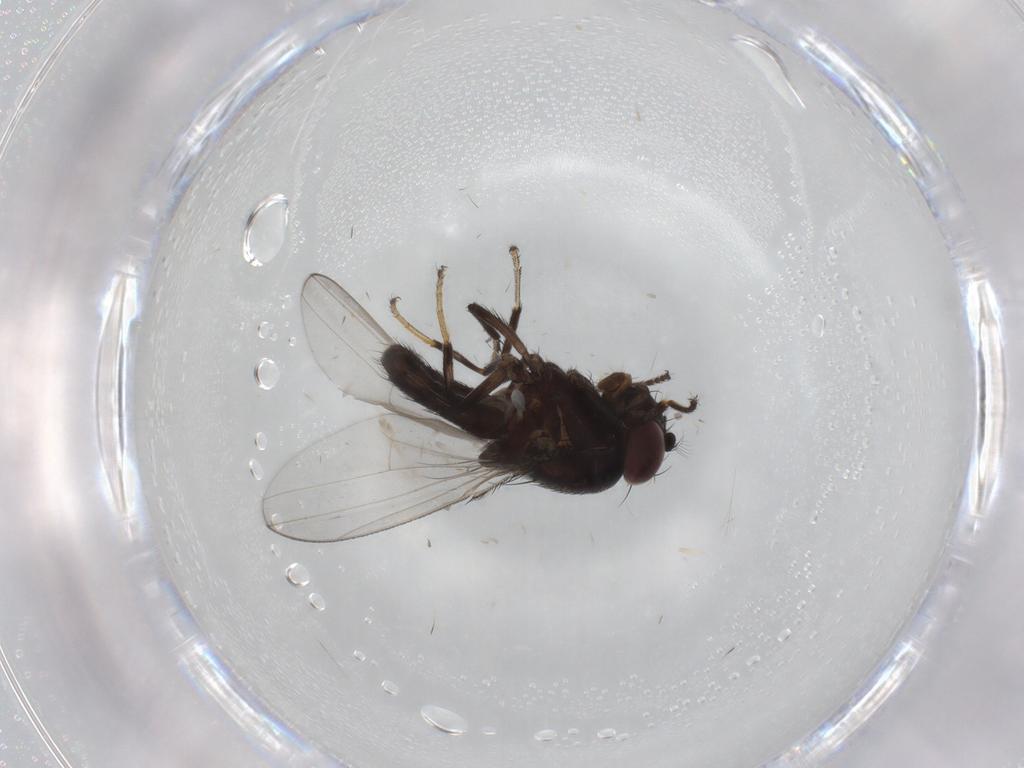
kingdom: Animalia
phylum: Arthropoda
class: Insecta
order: Diptera
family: Ephydridae
